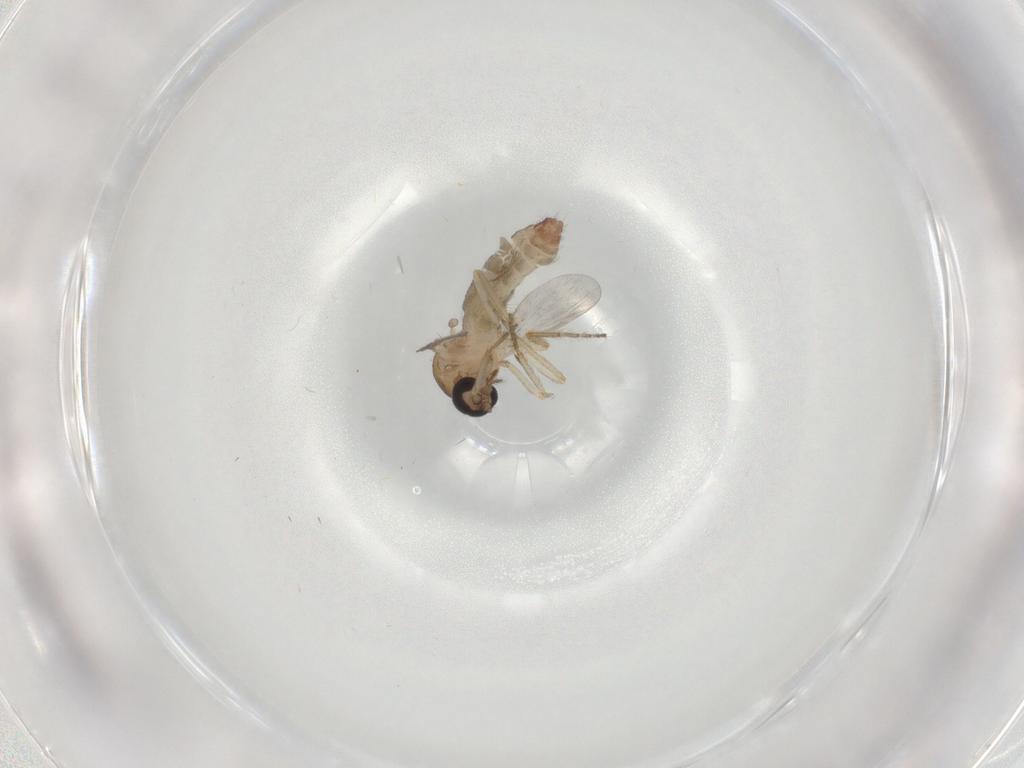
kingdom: Animalia
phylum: Arthropoda
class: Insecta
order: Diptera
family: Ceratopogonidae
